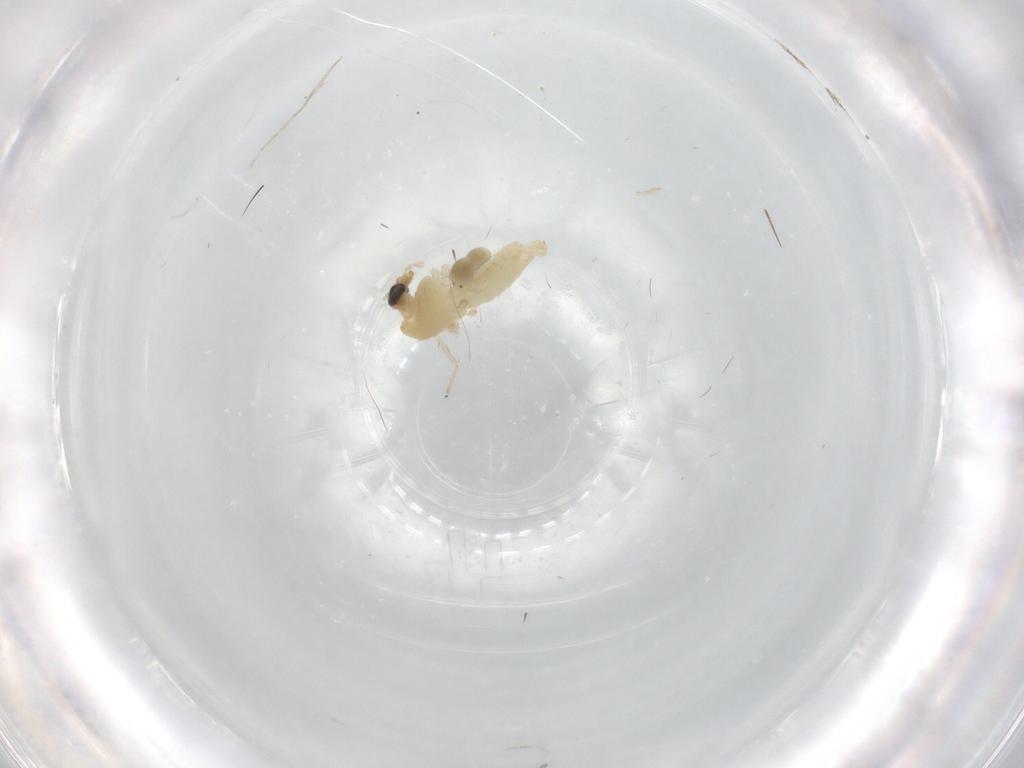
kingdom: Animalia
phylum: Arthropoda
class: Insecta
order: Diptera
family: Chironomidae
